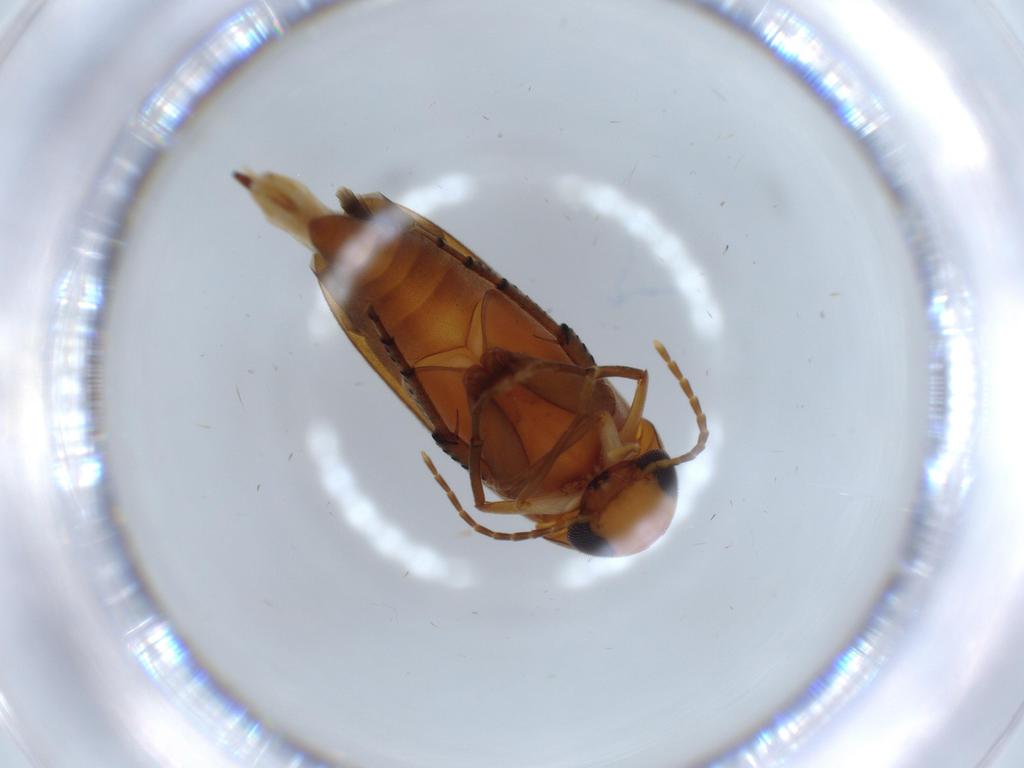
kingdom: Animalia
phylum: Arthropoda
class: Insecta
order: Coleoptera
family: Mordellidae
